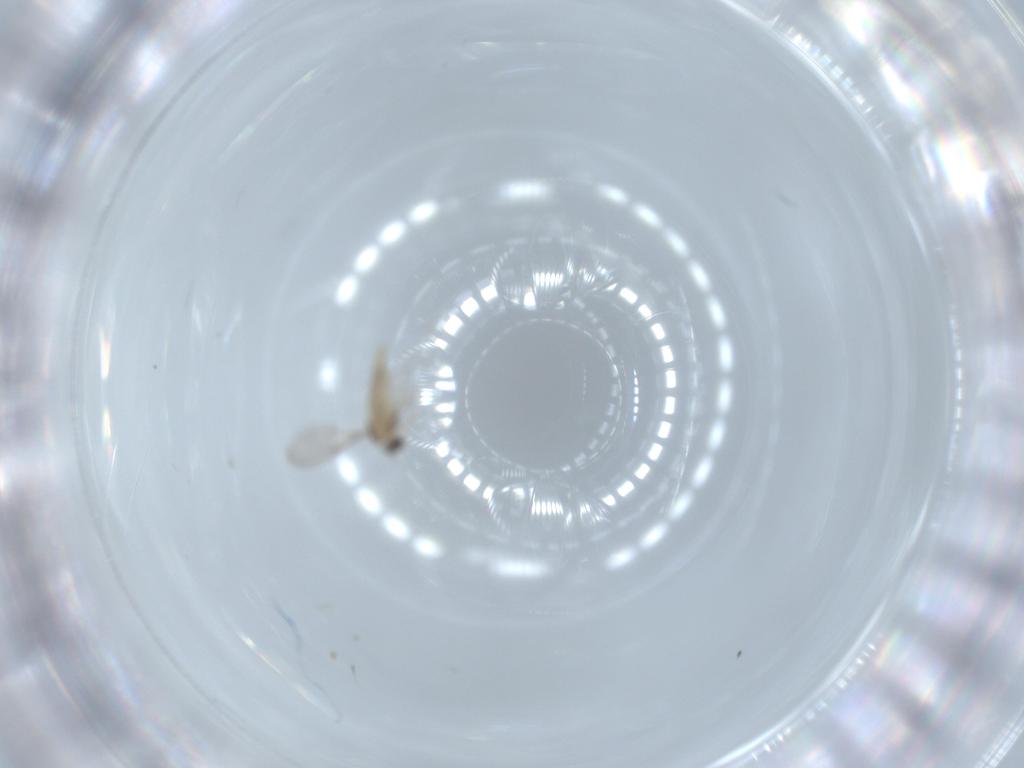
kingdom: Animalia
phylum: Arthropoda
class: Insecta
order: Diptera
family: Cecidomyiidae
